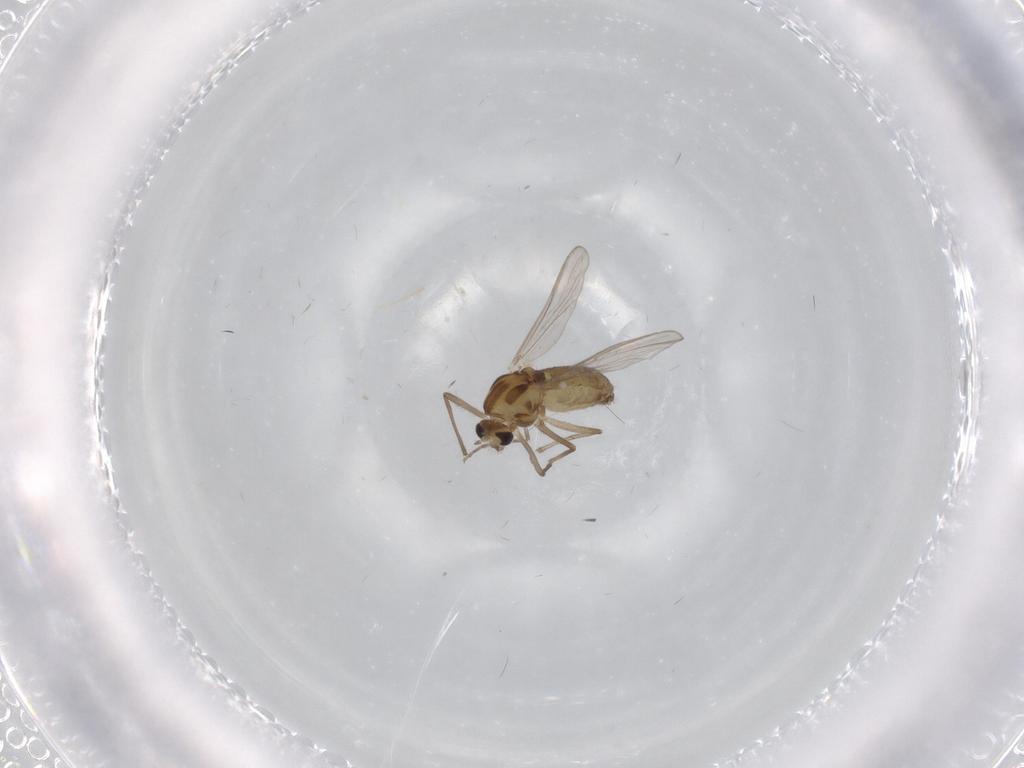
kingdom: Animalia
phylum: Arthropoda
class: Insecta
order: Diptera
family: Chironomidae
